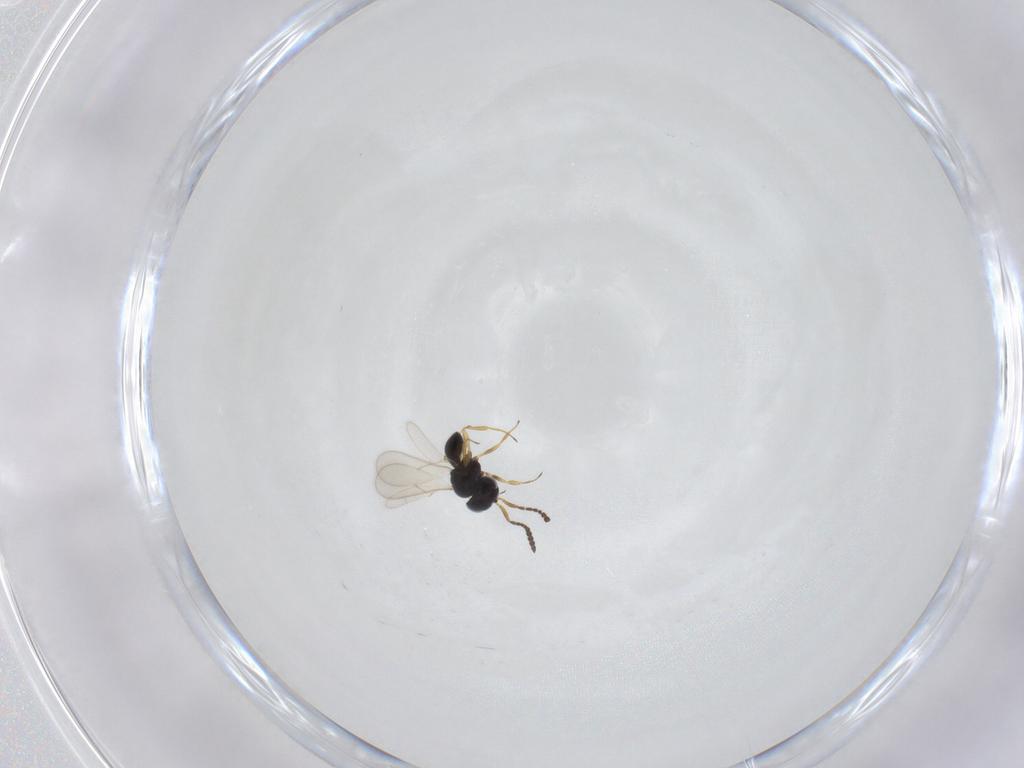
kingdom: Animalia
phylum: Arthropoda
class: Insecta
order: Hymenoptera
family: Scelionidae
